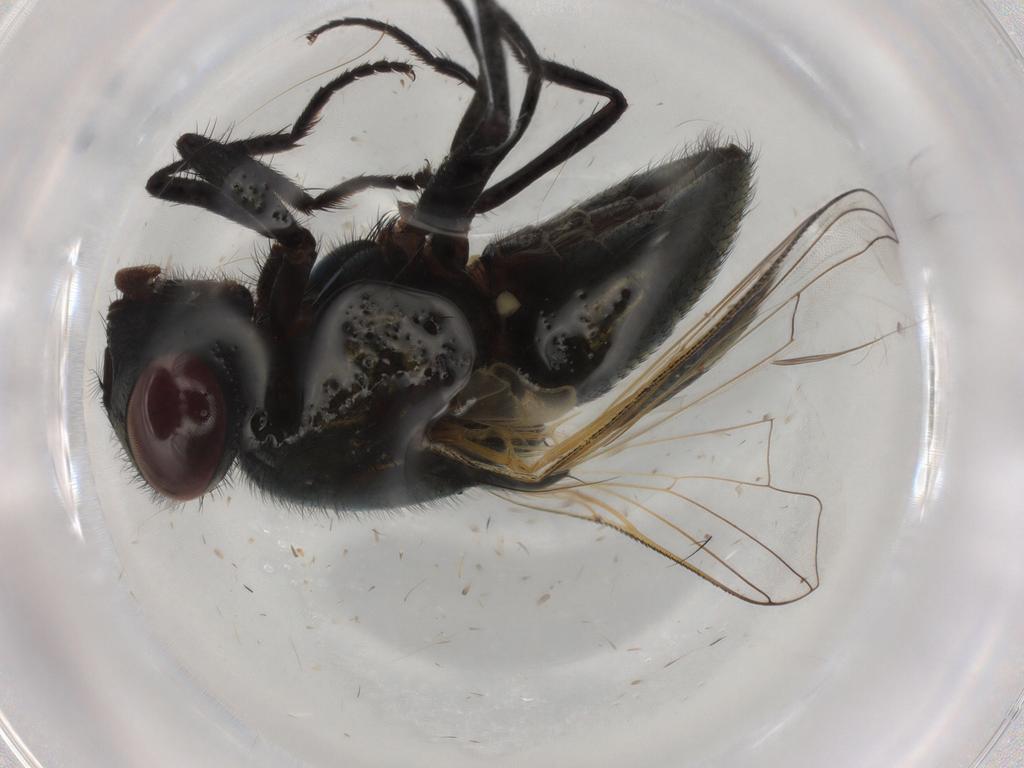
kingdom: Animalia
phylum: Arthropoda
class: Insecta
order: Diptera
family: Muscidae
